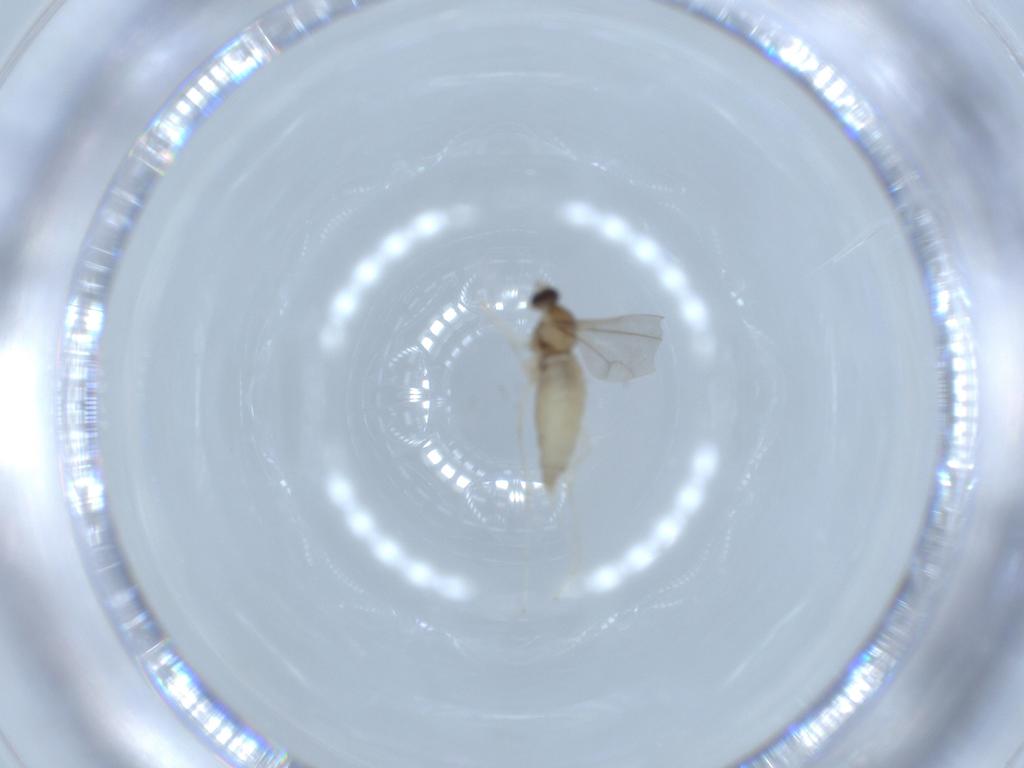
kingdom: Animalia
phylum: Arthropoda
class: Insecta
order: Diptera
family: Cecidomyiidae
